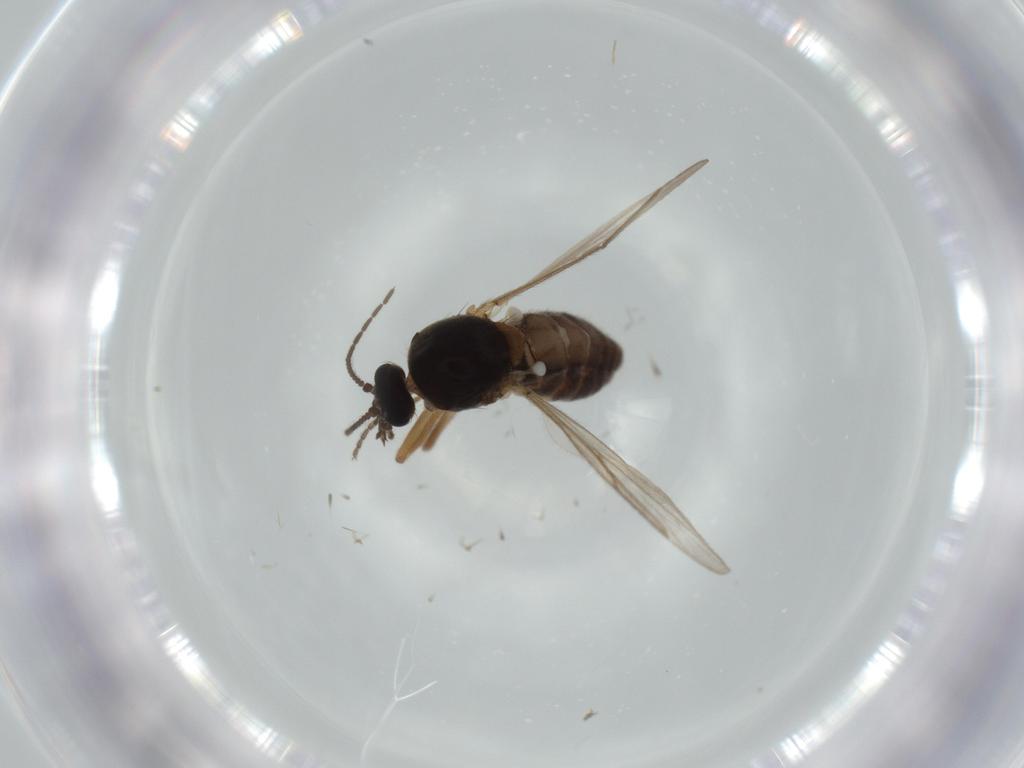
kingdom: Animalia
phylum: Arthropoda
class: Insecta
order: Diptera
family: Ceratopogonidae
